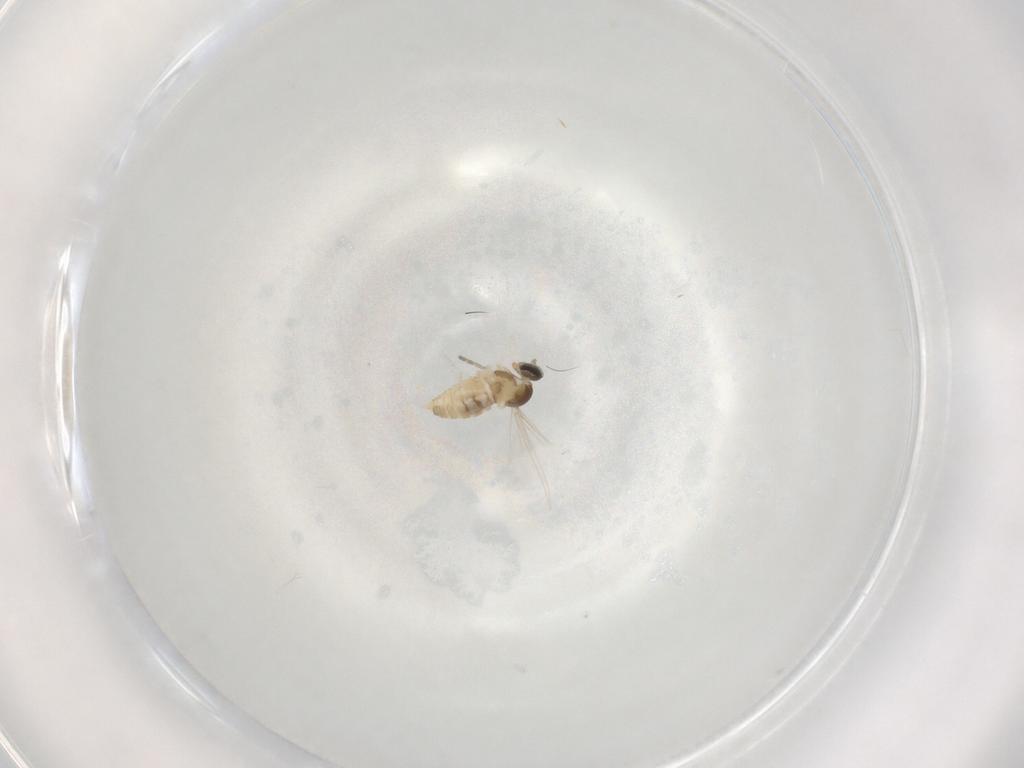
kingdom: Animalia
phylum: Arthropoda
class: Insecta
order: Diptera
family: Cecidomyiidae
